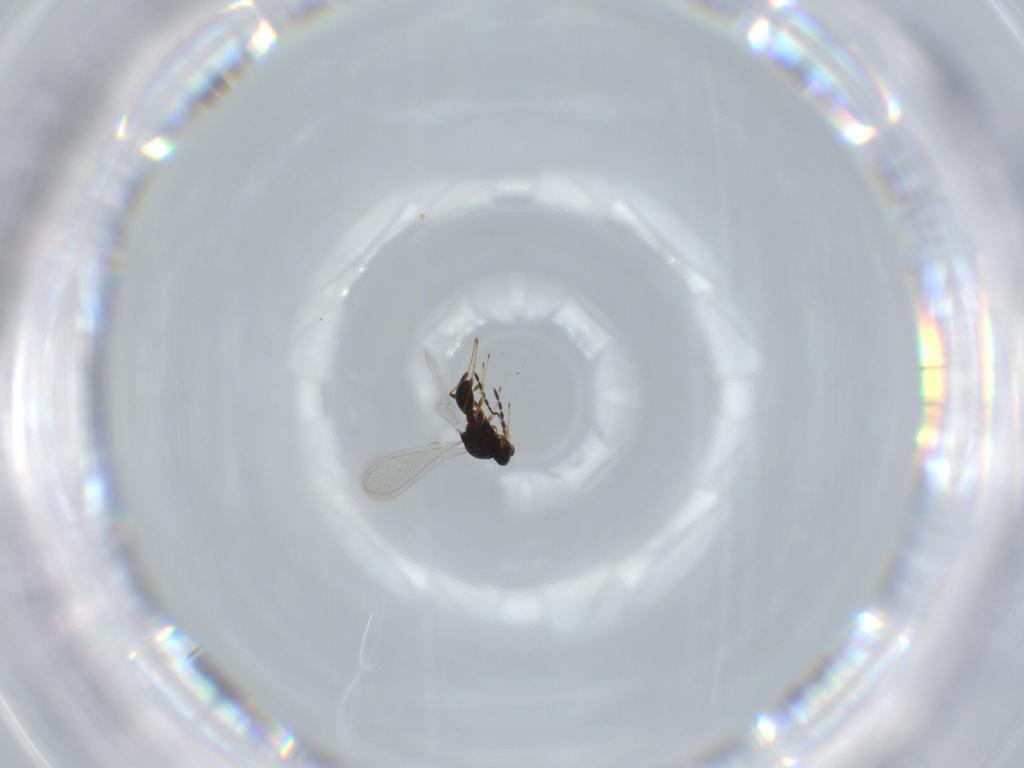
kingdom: Animalia
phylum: Arthropoda
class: Insecta
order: Hymenoptera
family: Platygastridae
